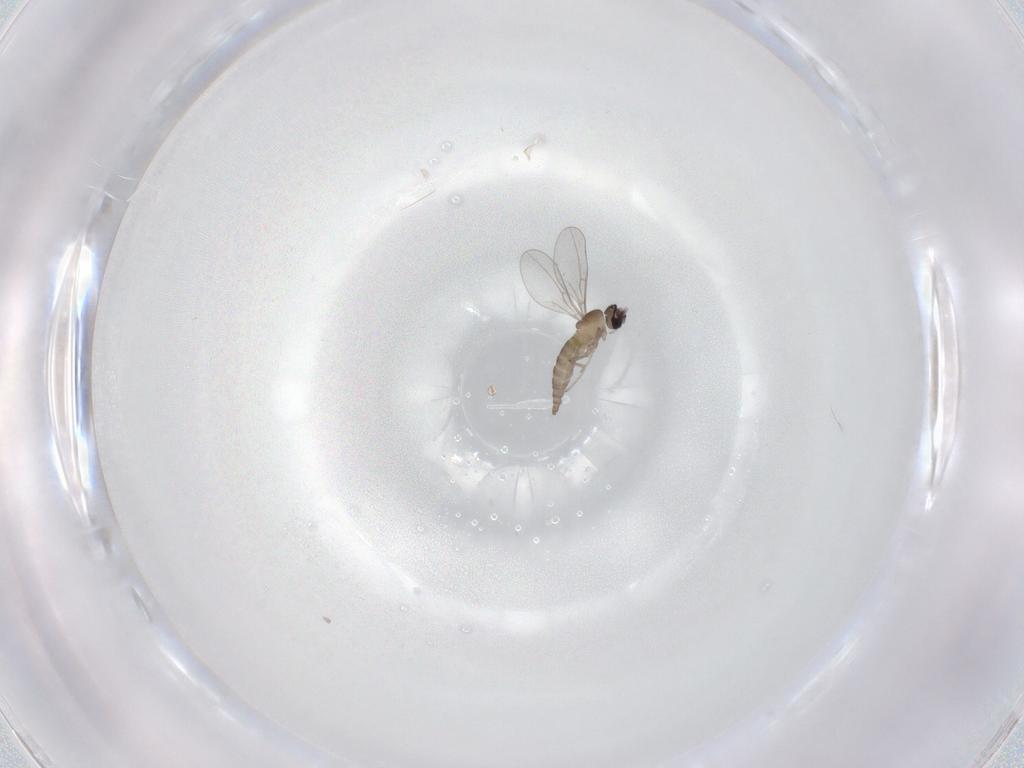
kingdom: Animalia
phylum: Arthropoda
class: Insecta
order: Diptera
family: Cecidomyiidae
